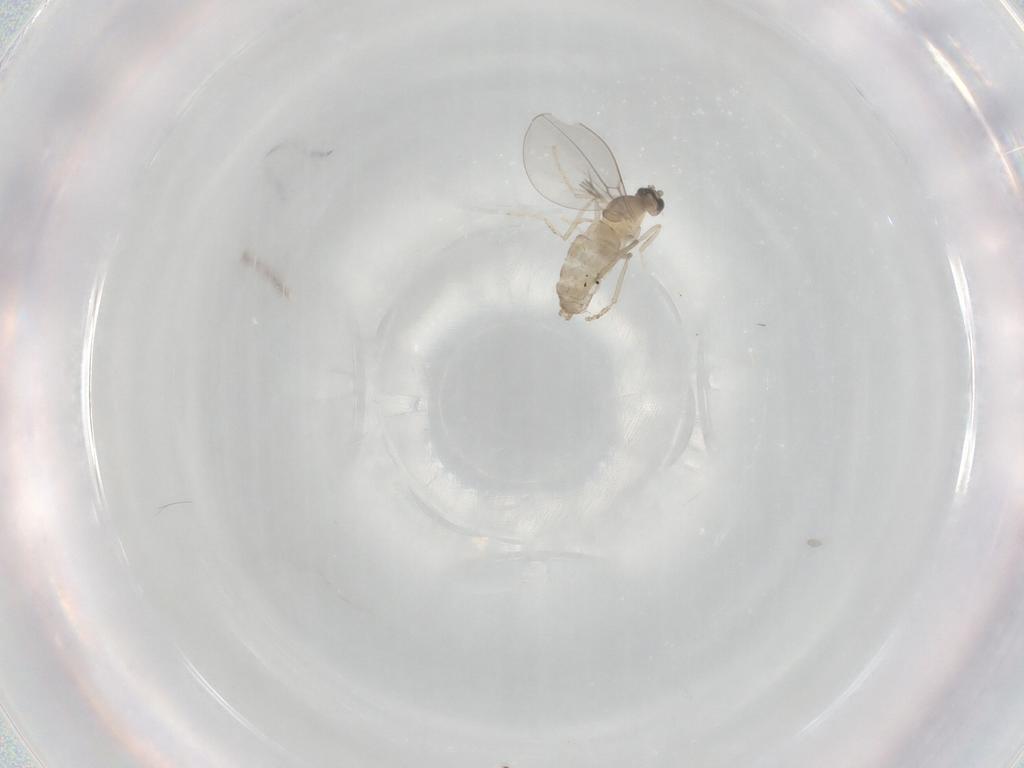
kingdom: Animalia
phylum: Arthropoda
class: Insecta
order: Diptera
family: Cecidomyiidae
